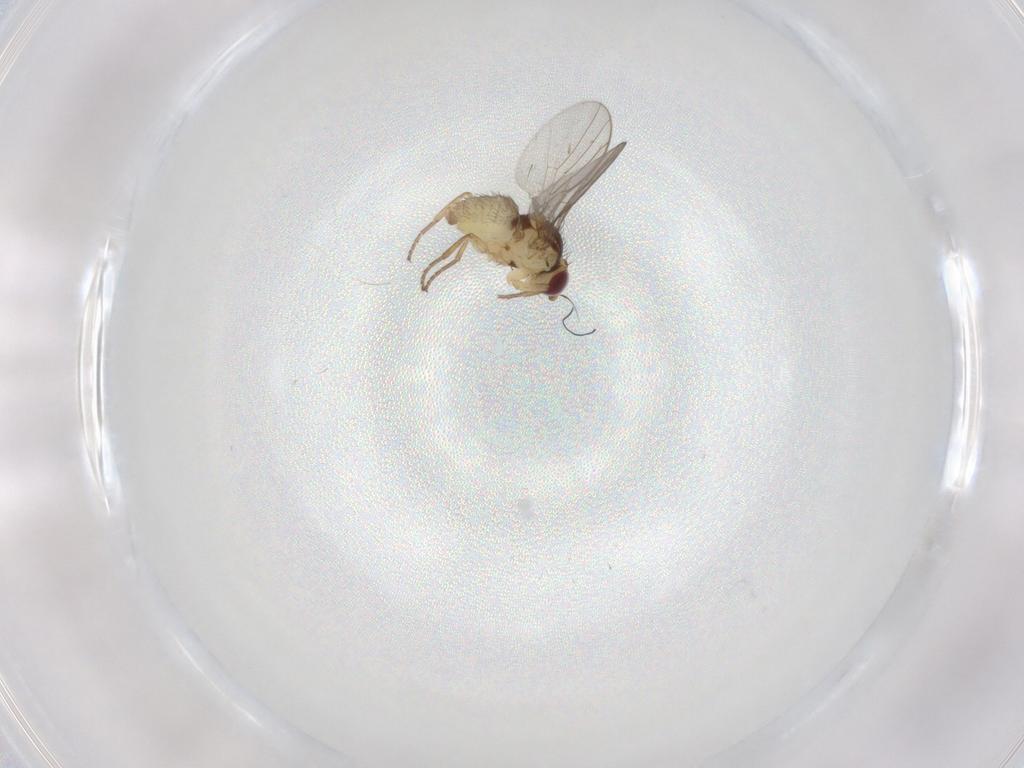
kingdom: Animalia
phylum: Arthropoda
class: Insecta
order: Diptera
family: Agromyzidae
